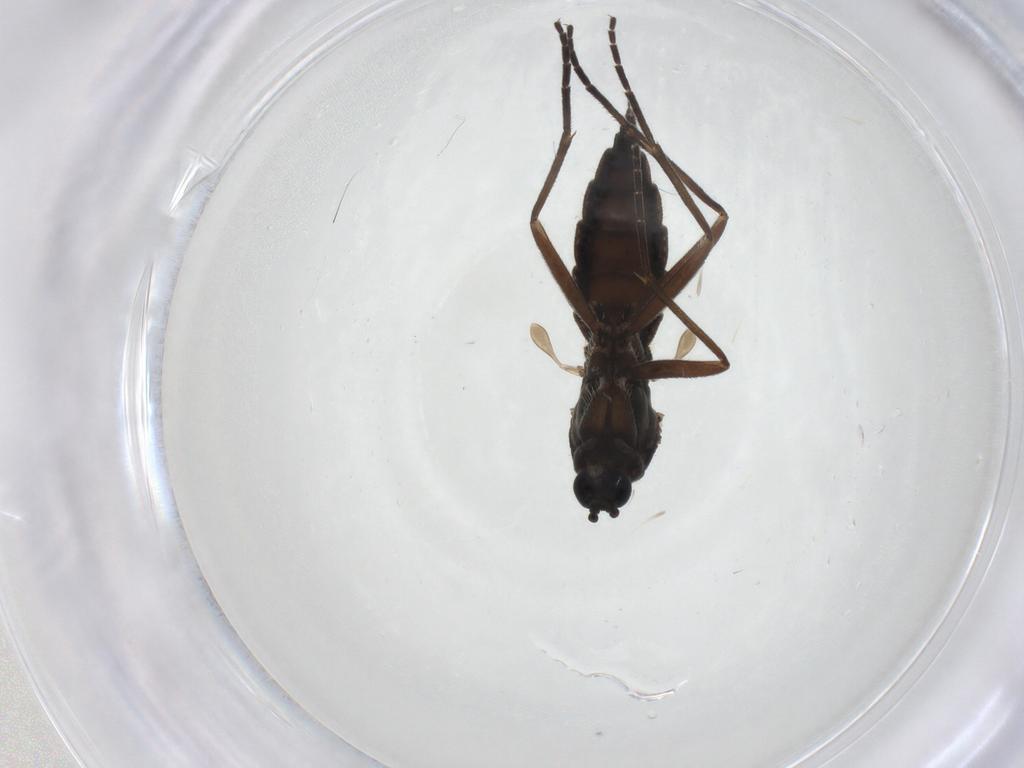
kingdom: Animalia
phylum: Arthropoda
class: Insecta
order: Diptera
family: Sciaridae
